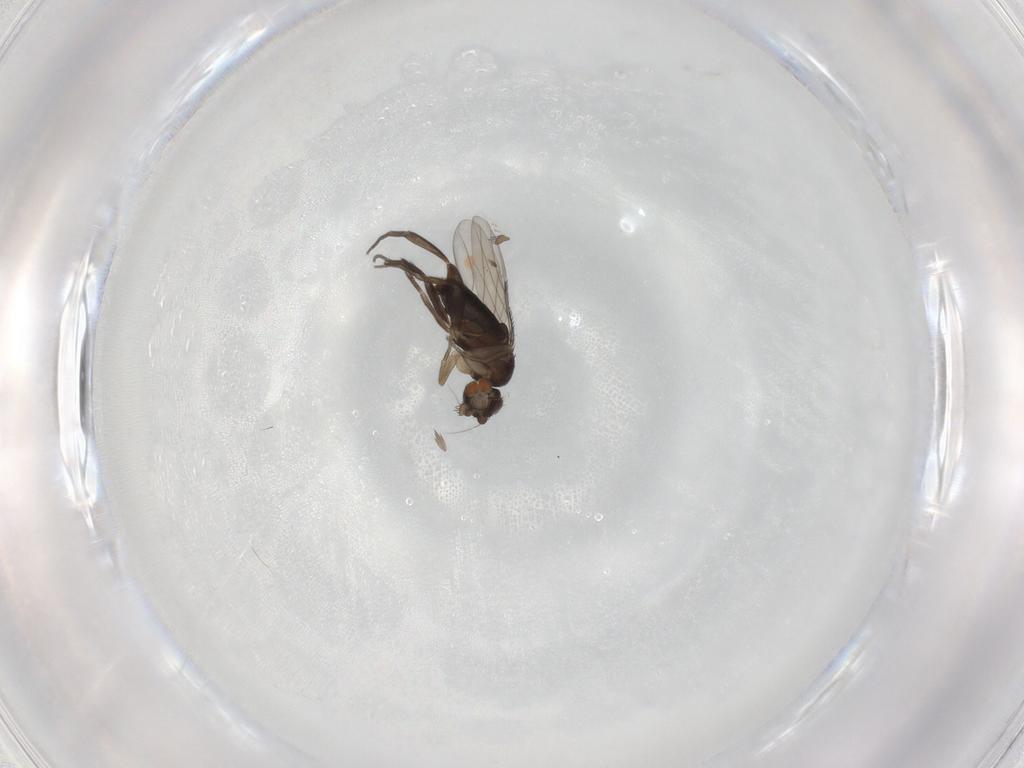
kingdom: Animalia
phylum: Arthropoda
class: Insecta
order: Diptera
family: Phoridae
